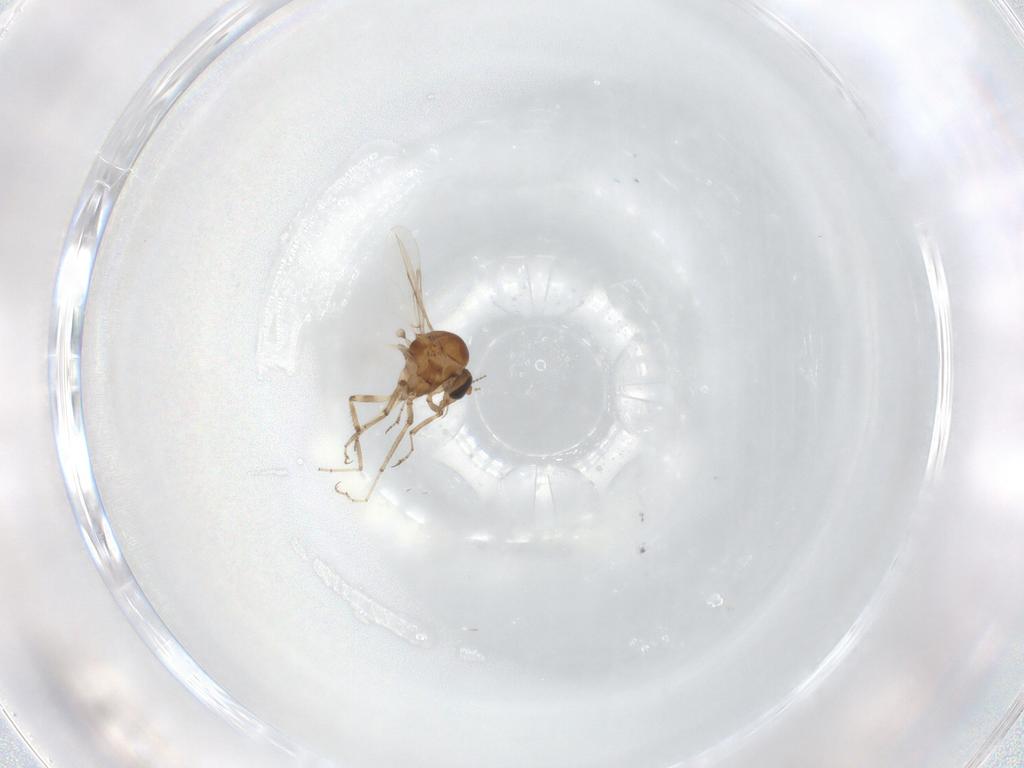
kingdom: Animalia
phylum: Arthropoda
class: Insecta
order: Diptera
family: Ceratopogonidae
